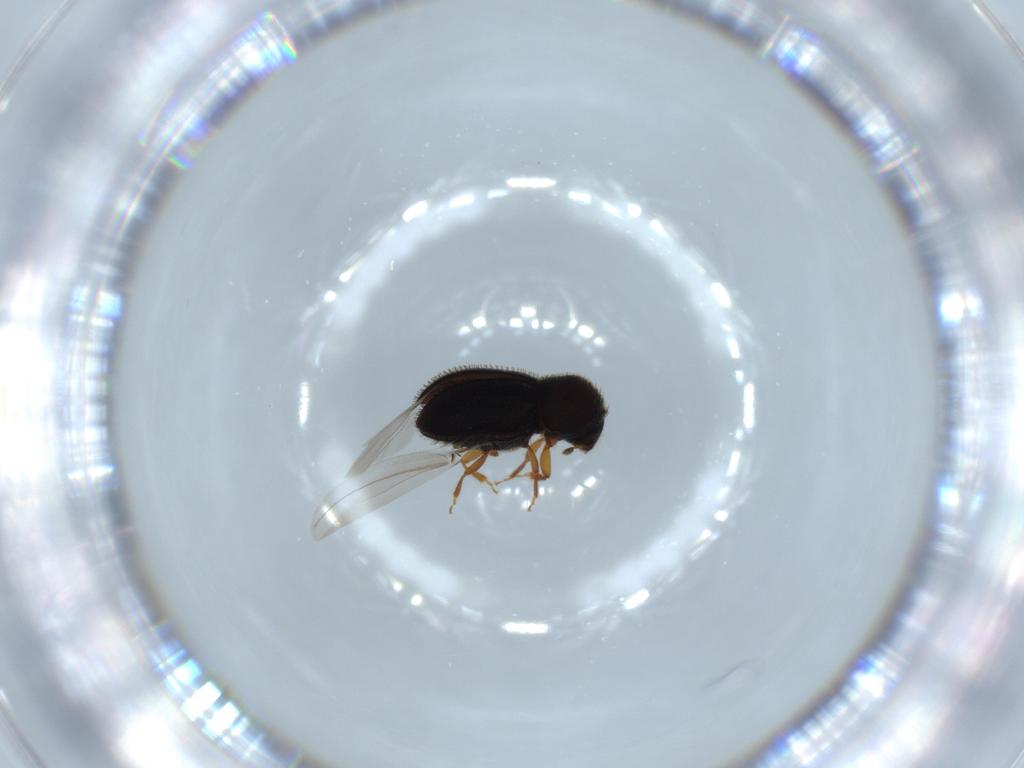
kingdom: Animalia
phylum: Arthropoda
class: Insecta
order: Coleoptera
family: Curculionidae
